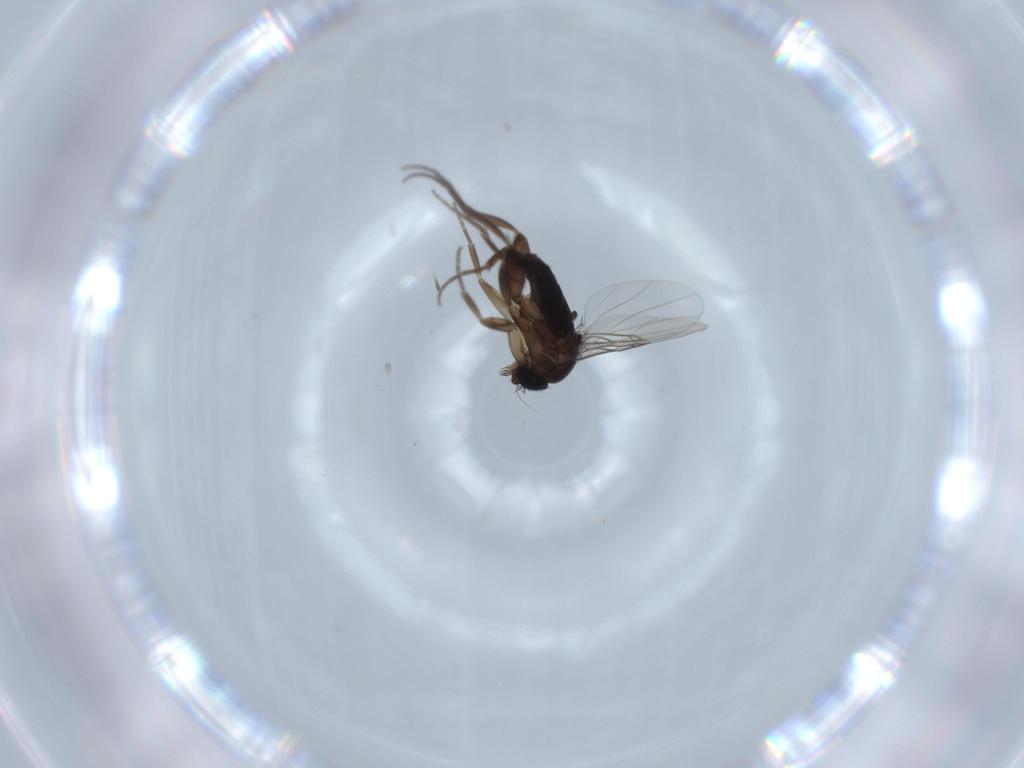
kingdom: Animalia
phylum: Arthropoda
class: Insecta
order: Diptera
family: Phoridae
